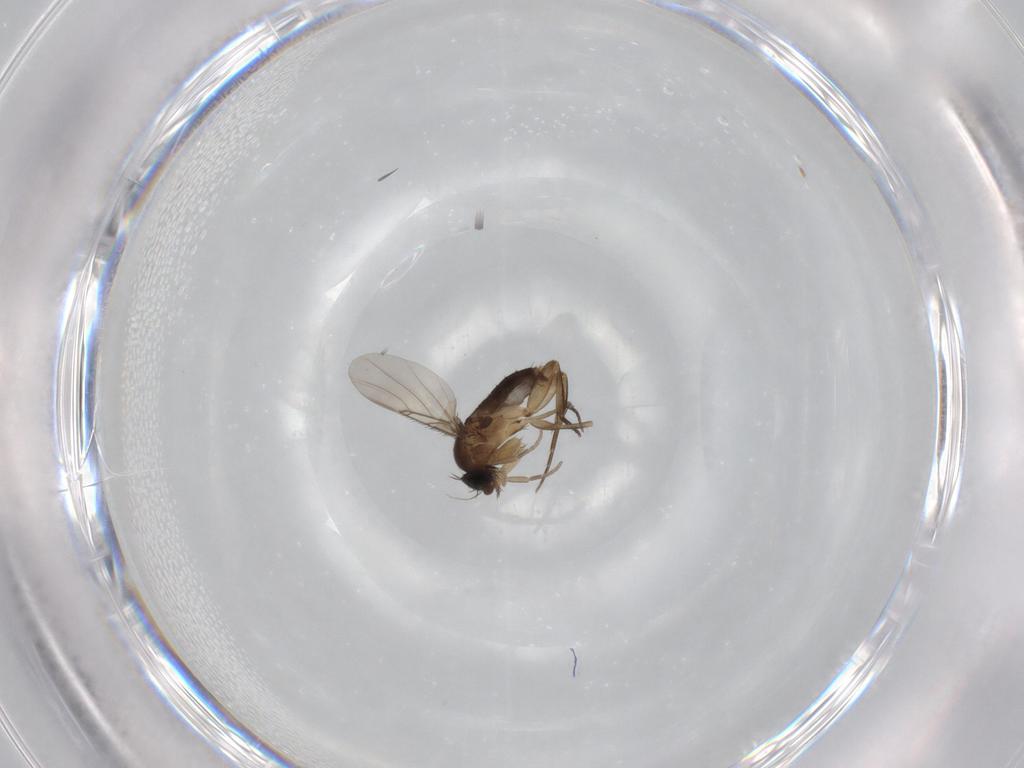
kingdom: Animalia
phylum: Arthropoda
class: Insecta
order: Diptera
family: Phoridae
